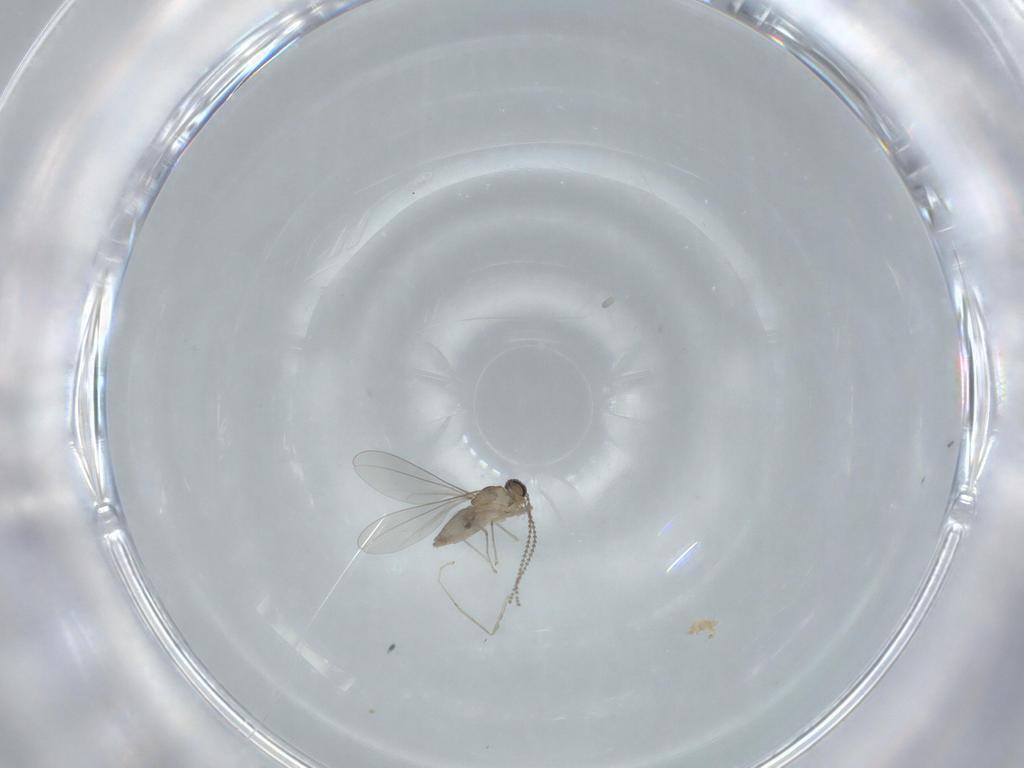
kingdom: Animalia
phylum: Arthropoda
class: Insecta
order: Diptera
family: Cecidomyiidae
